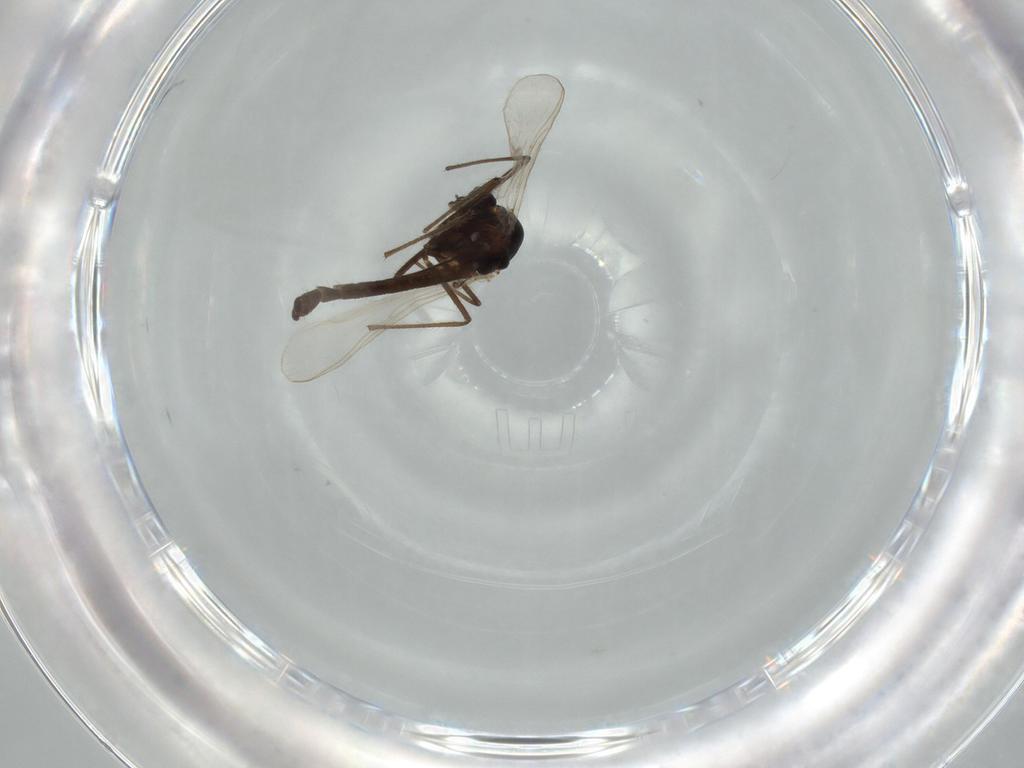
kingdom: Animalia
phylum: Arthropoda
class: Insecta
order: Diptera
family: Chironomidae
